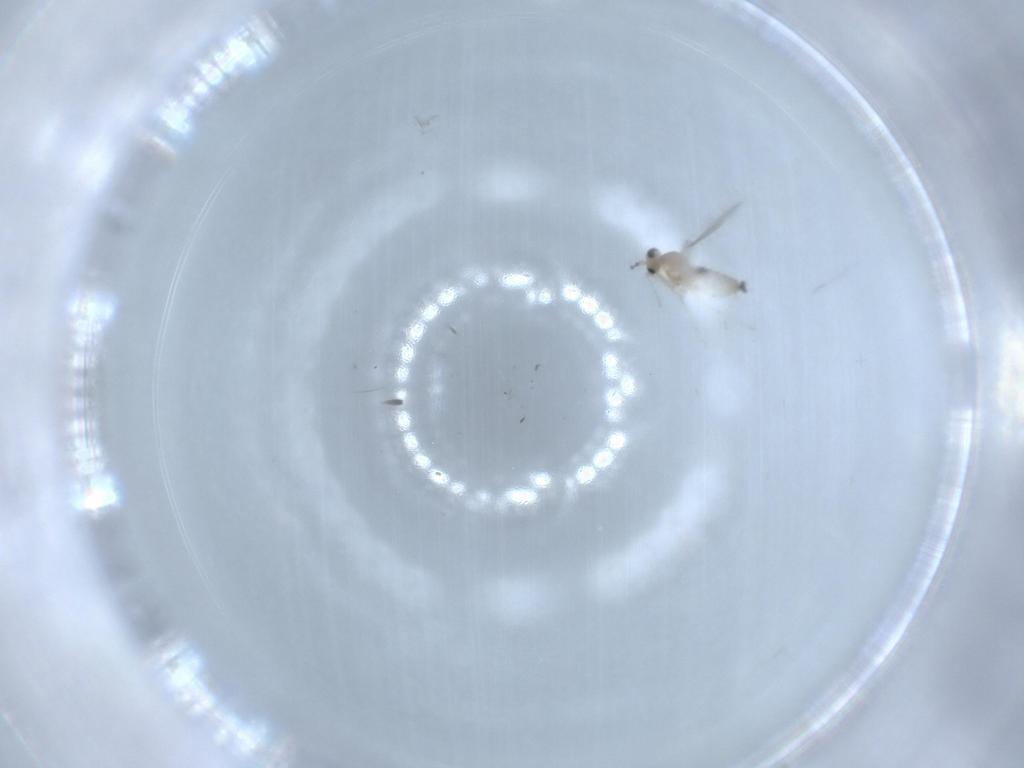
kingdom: Animalia
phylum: Arthropoda
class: Insecta
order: Diptera
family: Cecidomyiidae
